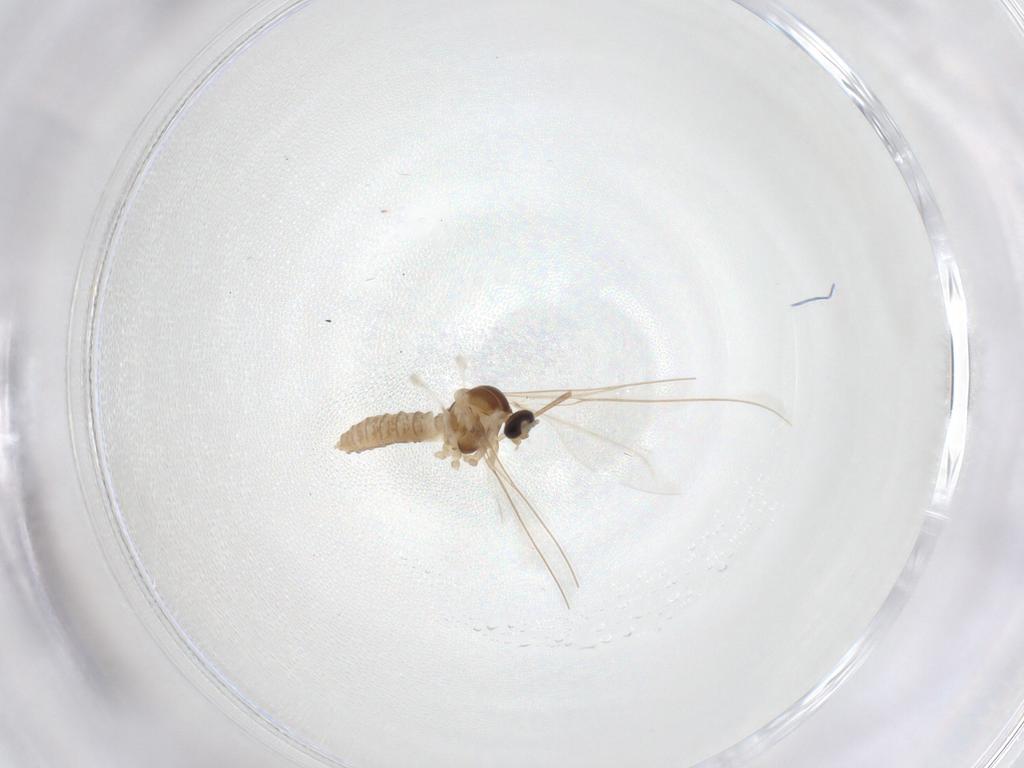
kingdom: Animalia
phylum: Arthropoda
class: Insecta
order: Diptera
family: Cecidomyiidae
